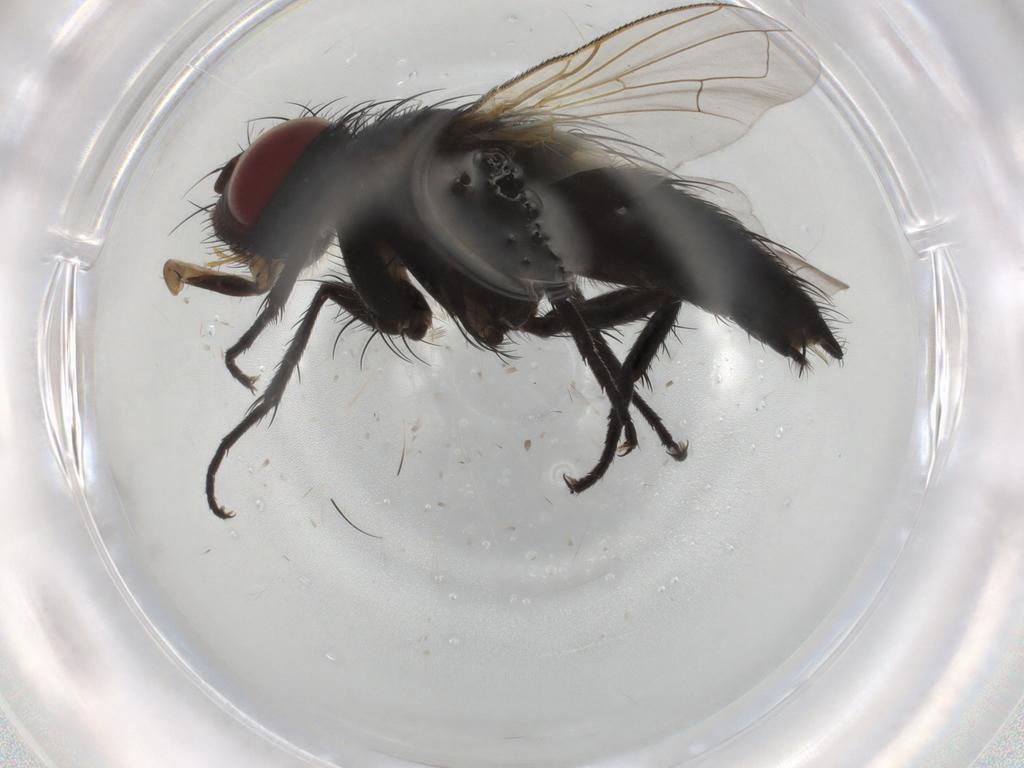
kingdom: Animalia
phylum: Arthropoda
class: Insecta
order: Diptera
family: Tachinidae
